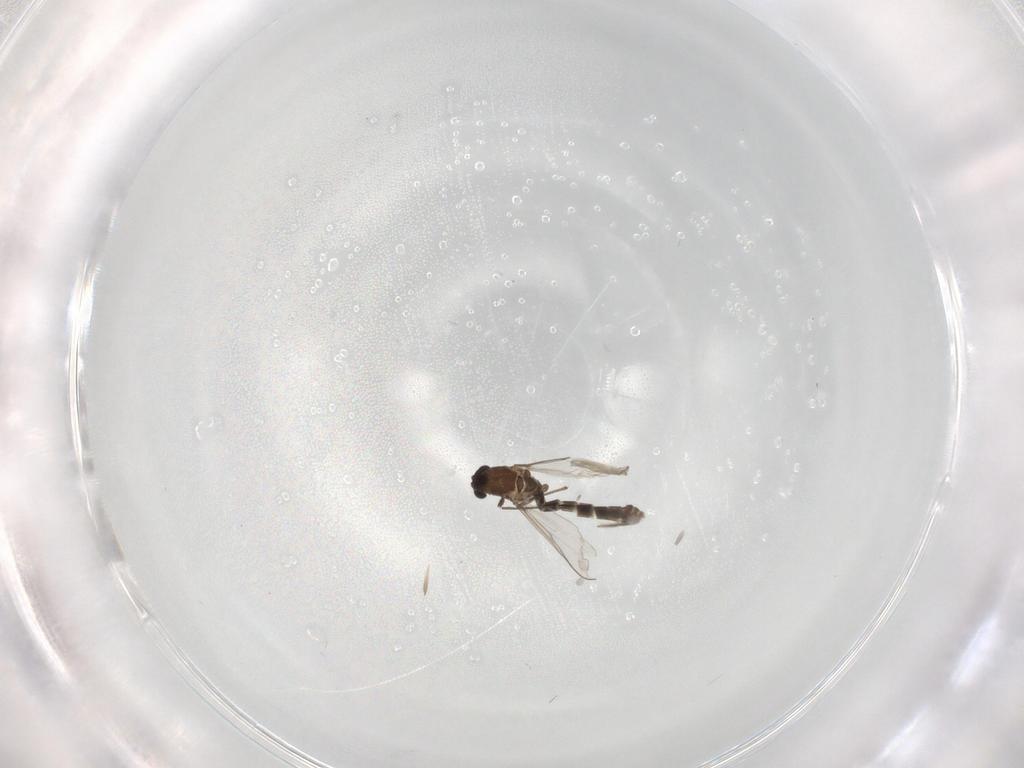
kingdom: Animalia
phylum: Arthropoda
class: Insecta
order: Diptera
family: Chironomidae
